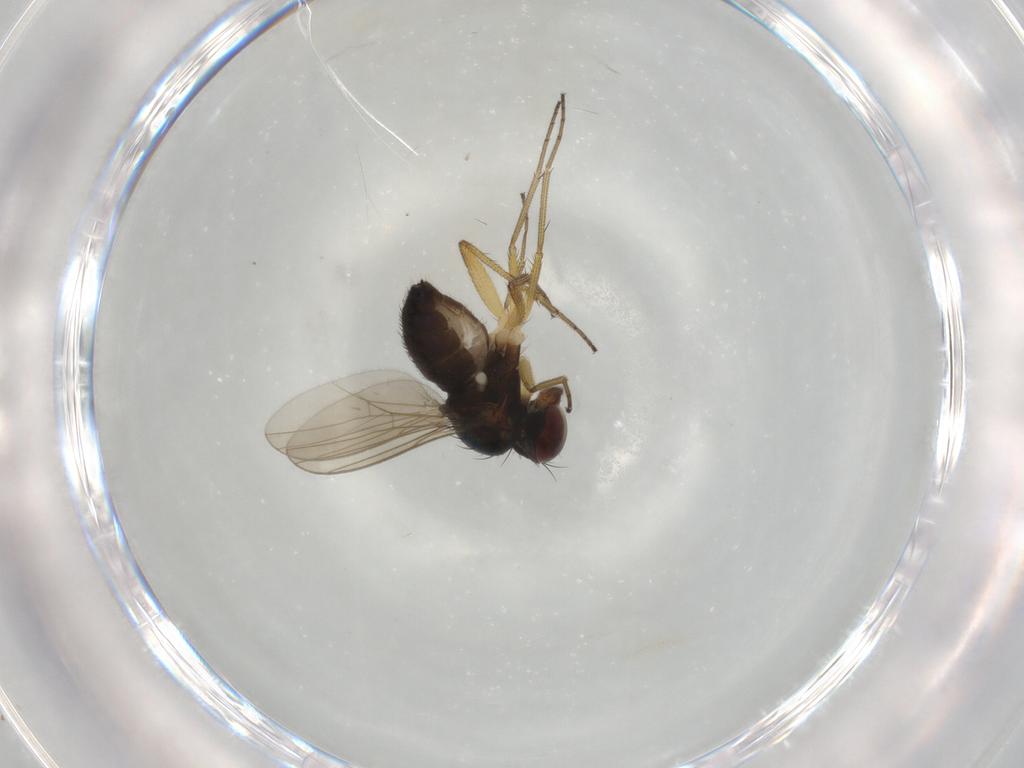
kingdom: Animalia
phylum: Arthropoda
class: Insecta
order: Diptera
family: Dolichopodidae
